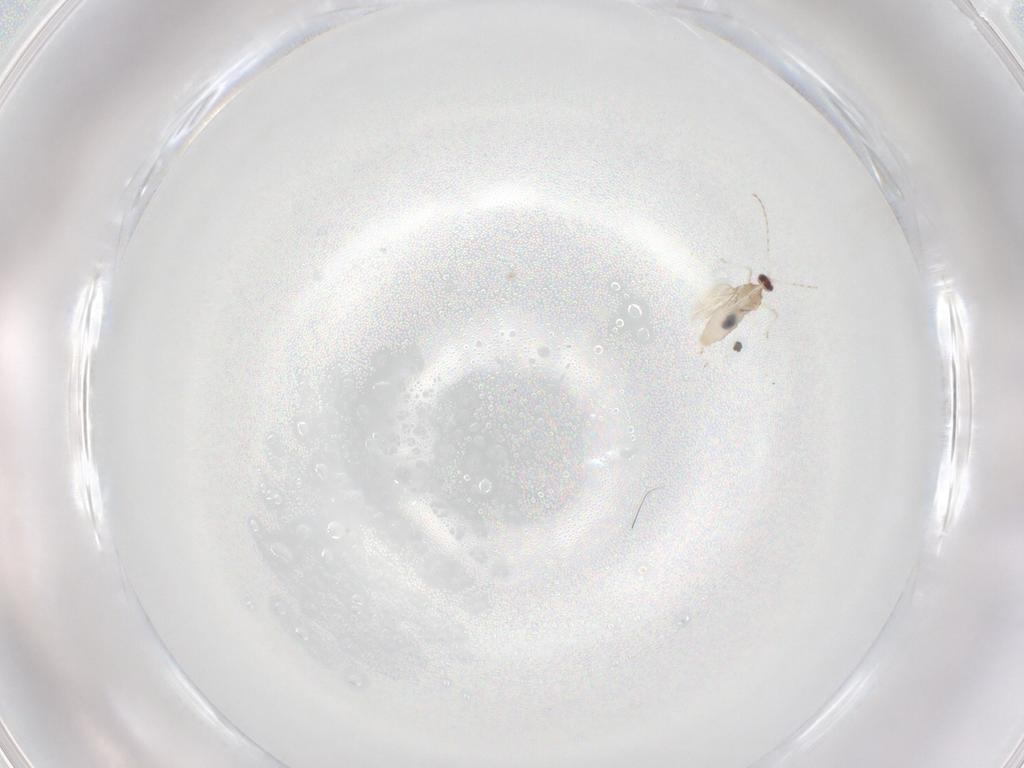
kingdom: Animalia
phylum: Arthropoda
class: Insecta
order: Diptera
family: Cecidomyiidae
